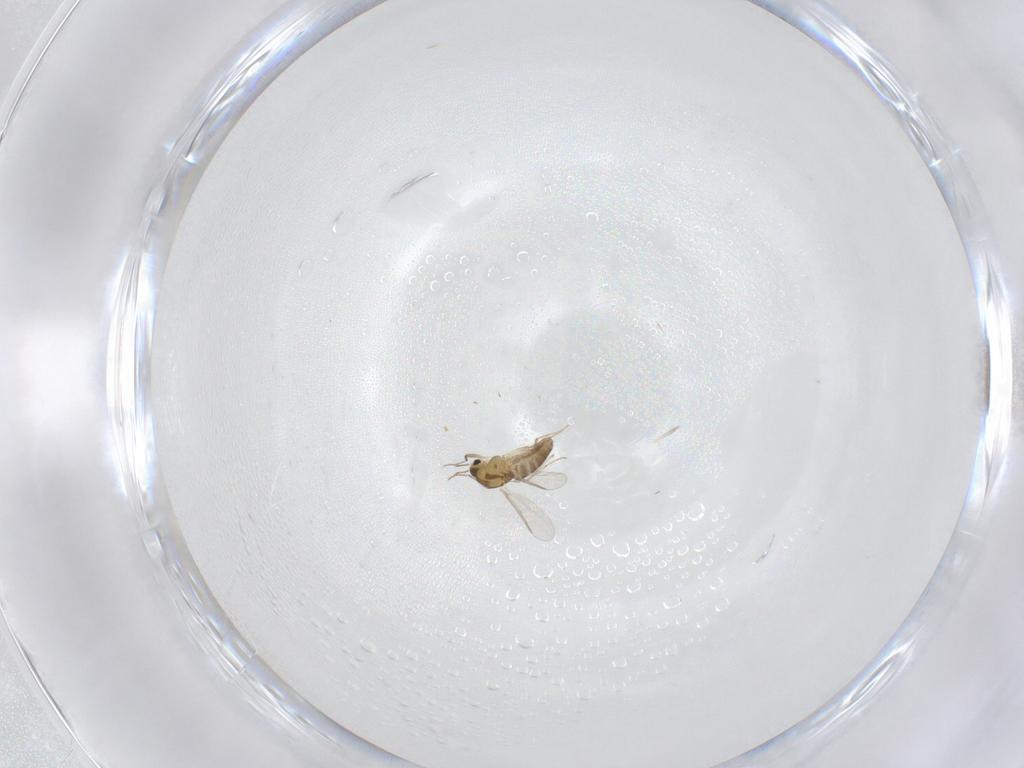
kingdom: Animalia
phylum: Arthropoda
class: Insecta
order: Diptera
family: Chironomidae
